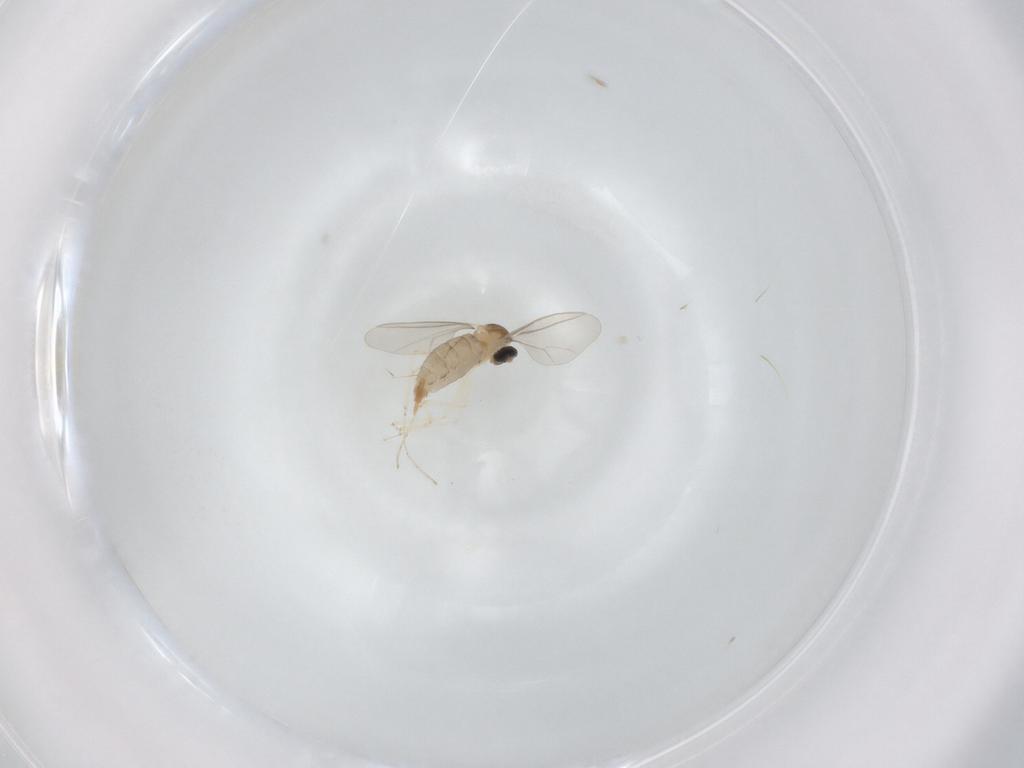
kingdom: Animalia
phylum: Arthropoda
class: Insecta
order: Diptera
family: Cecidomyiidae
